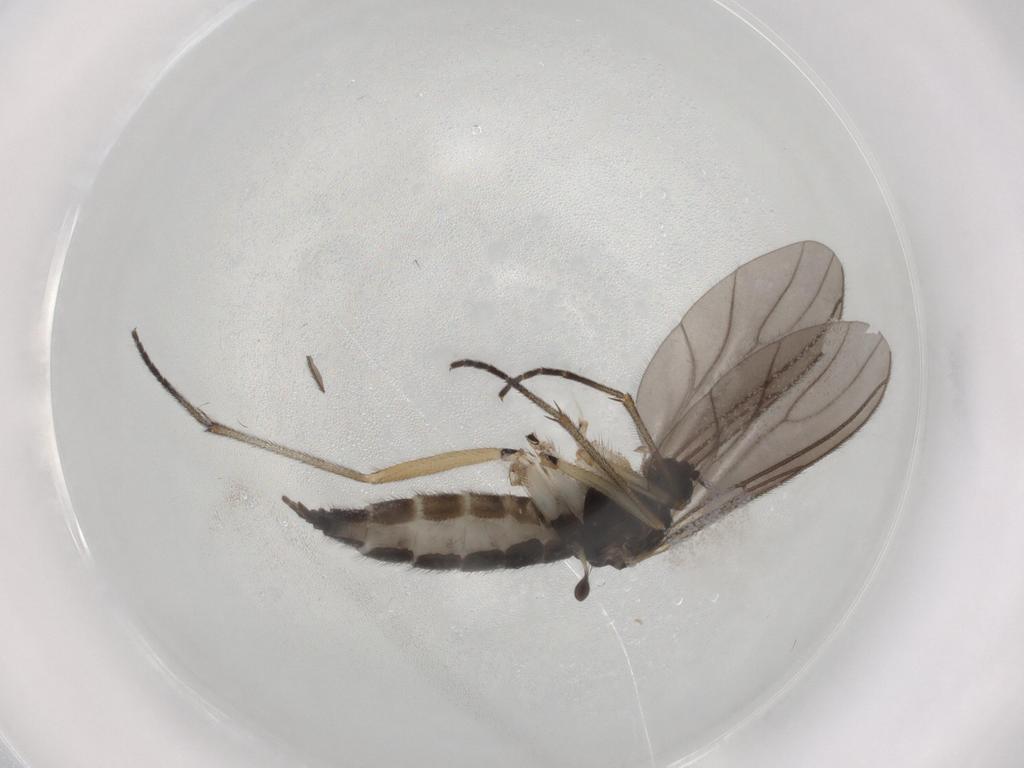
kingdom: Animalia
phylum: Arthropoda
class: Insecta
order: Diptera
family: Sciaridae
